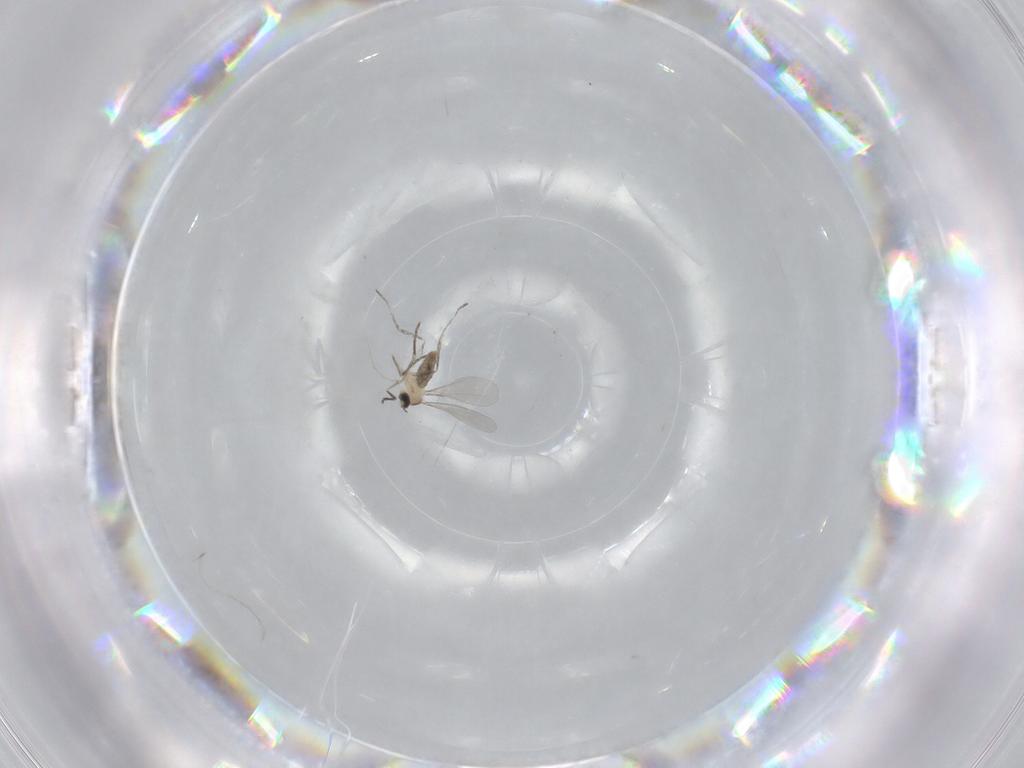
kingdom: Animalia
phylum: Arthropoda
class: Insecta
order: Diptera
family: Cecidomyiidae
